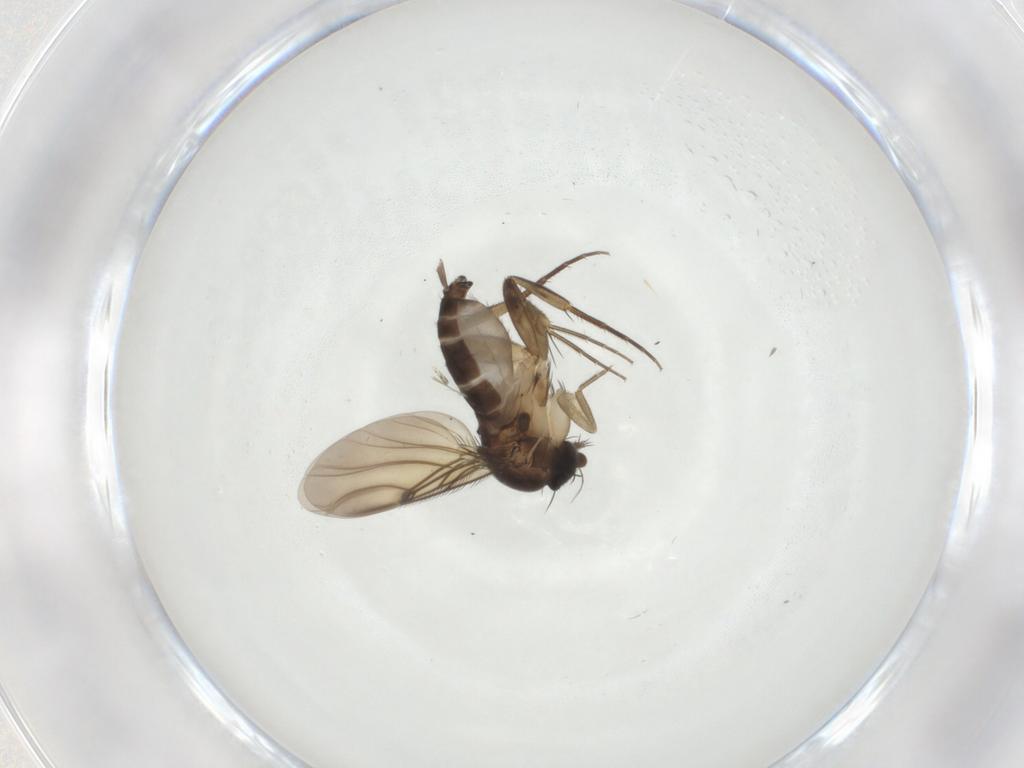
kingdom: Animalia
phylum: Arthropoda
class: Insecta
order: Diptera
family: Phoridae
